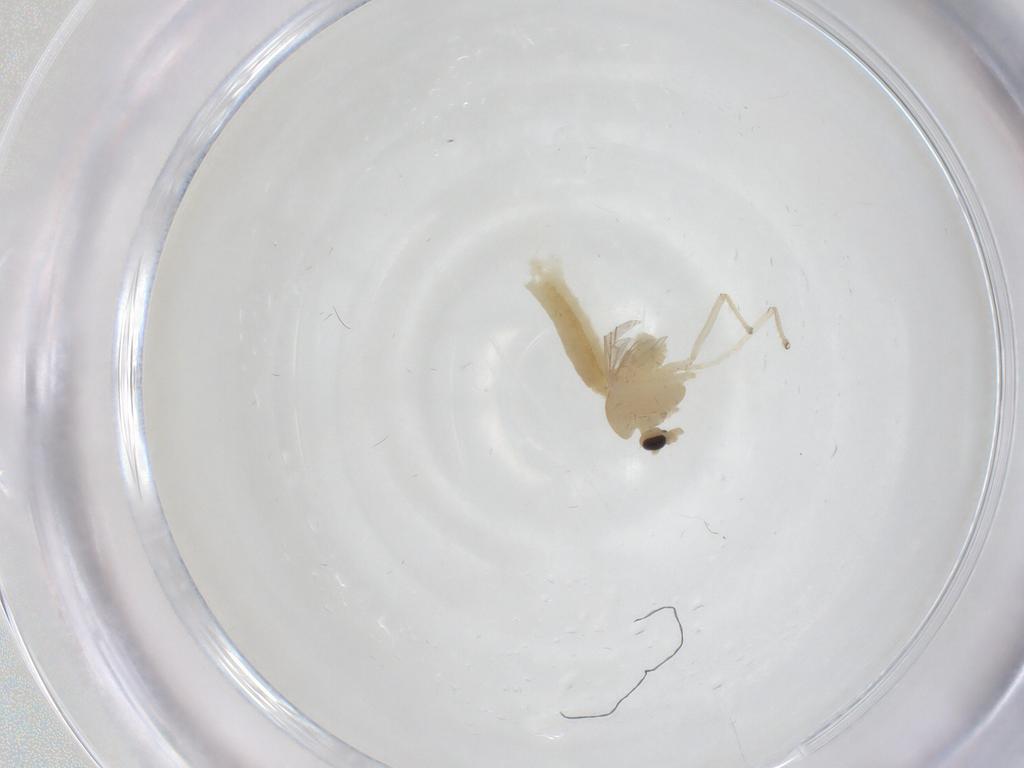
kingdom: Animalia
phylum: Arthropoda
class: Insecta
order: Diptera
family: Chironomidae
